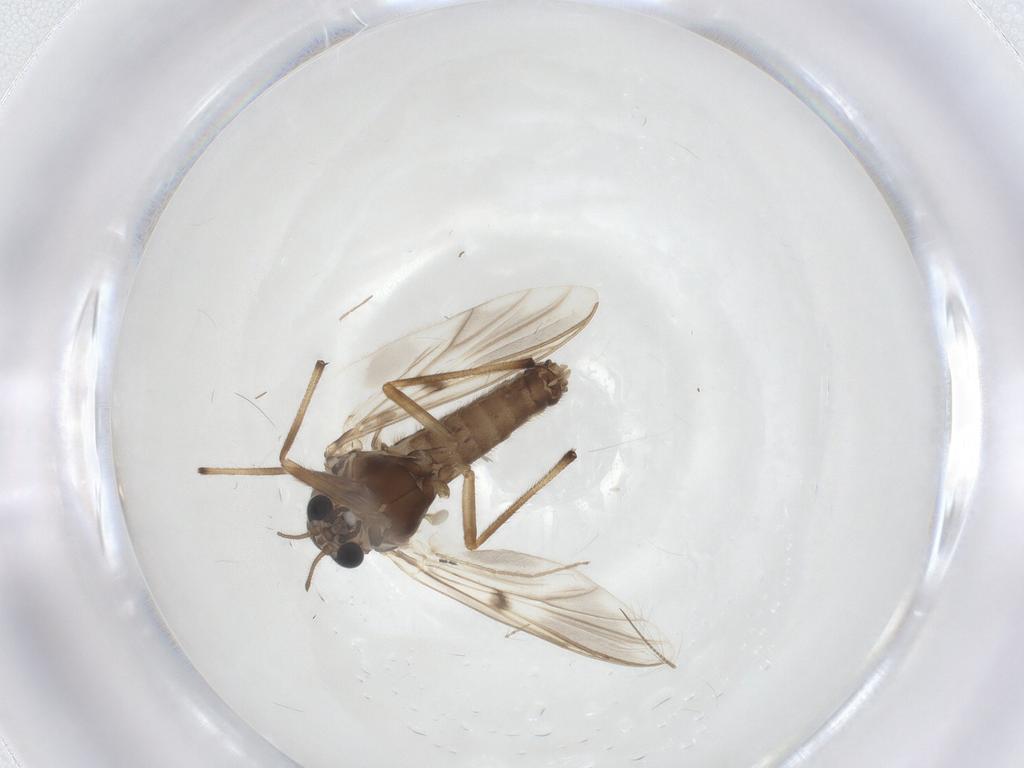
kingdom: Animalia
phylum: Arthropoda
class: Insecta
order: Diptera
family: Chironomidae
